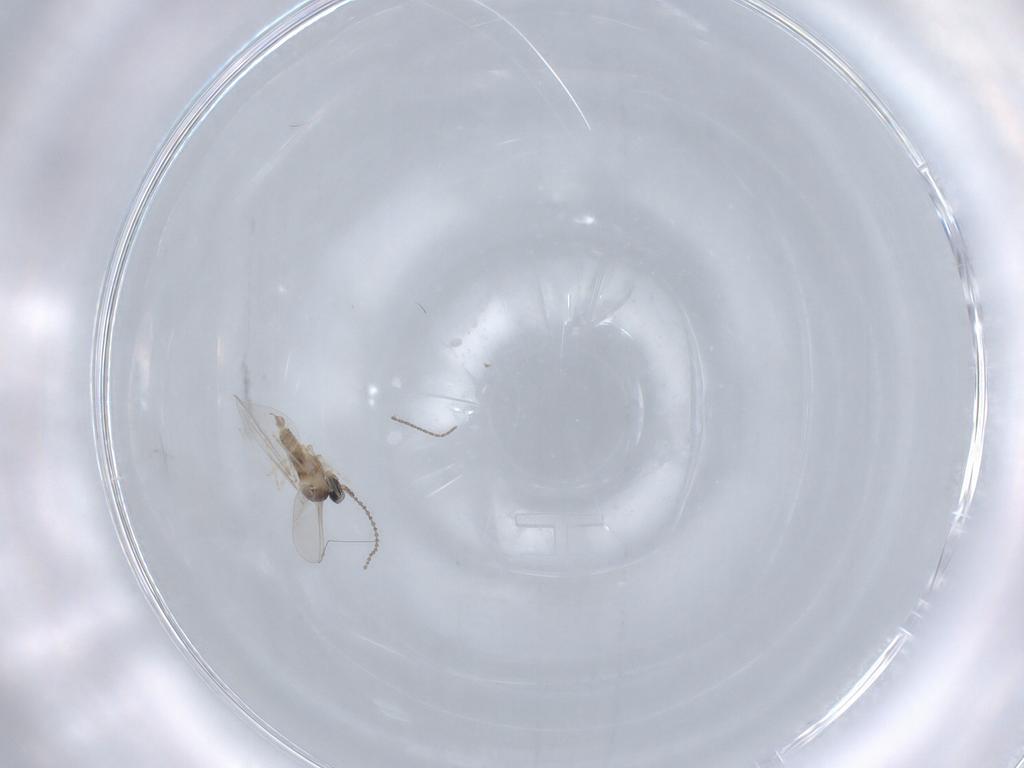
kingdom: Animalia
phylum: Arthropoda
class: Insecta
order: Diptera
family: Cecidomyiidae
